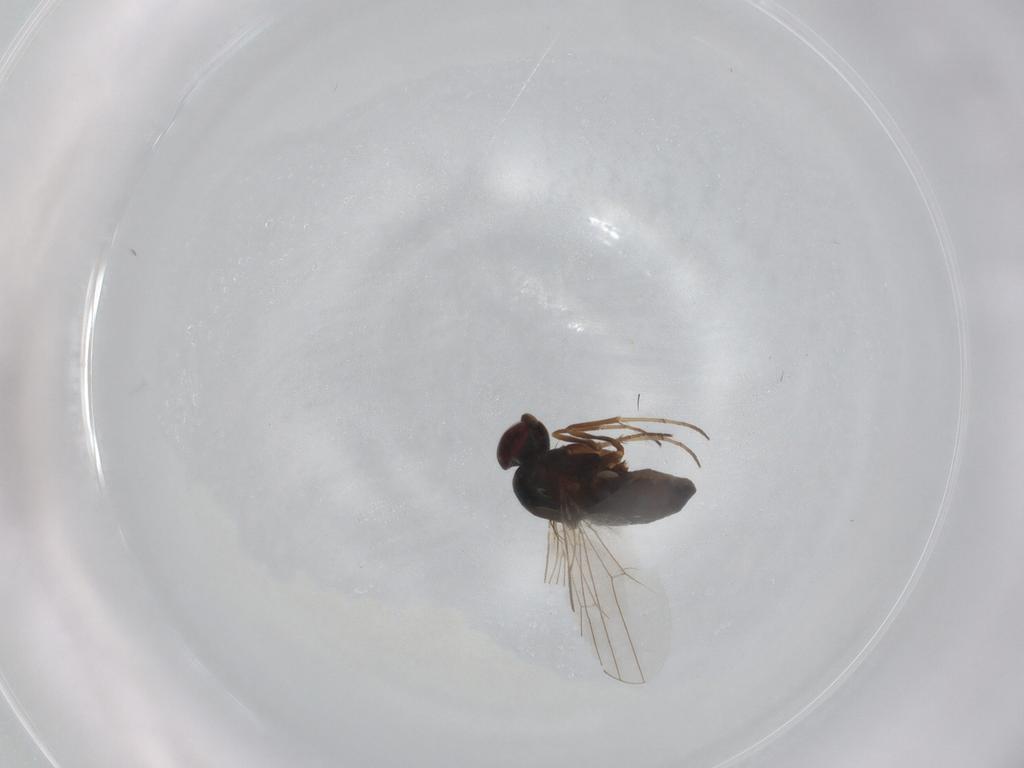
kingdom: Animalia
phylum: Arthropoda
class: Insecta
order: Diptera
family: Dolichopodidae
